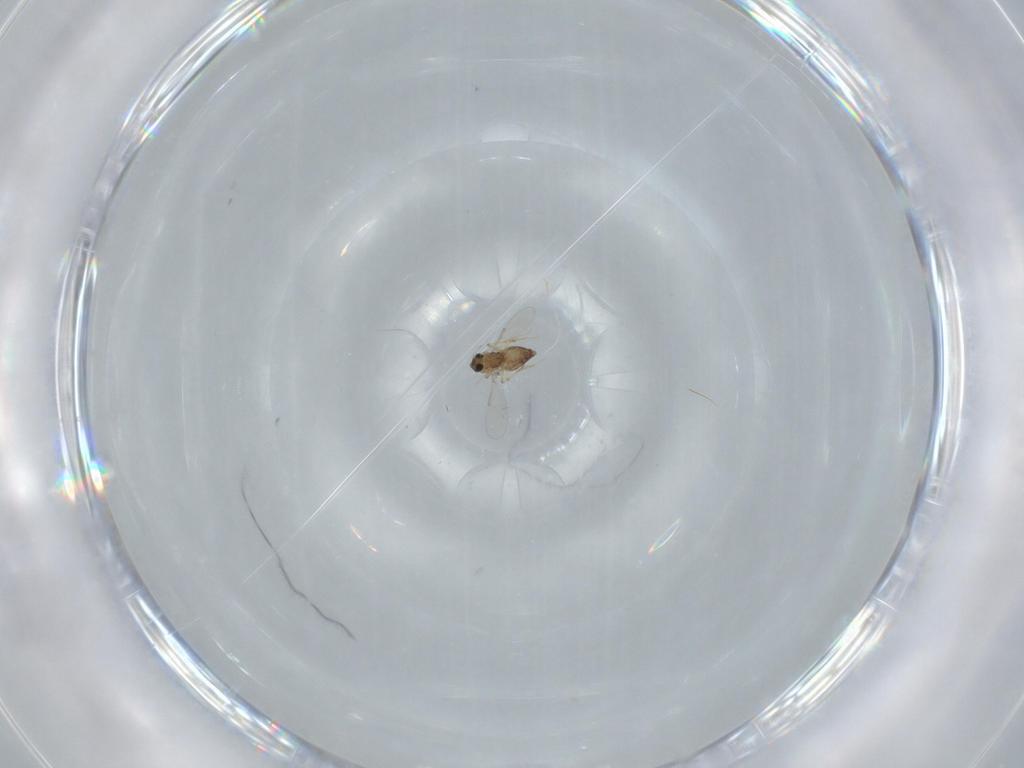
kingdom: Animalia
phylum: Arthropoda
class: Insecta
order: Diptera
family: Chironomidae
